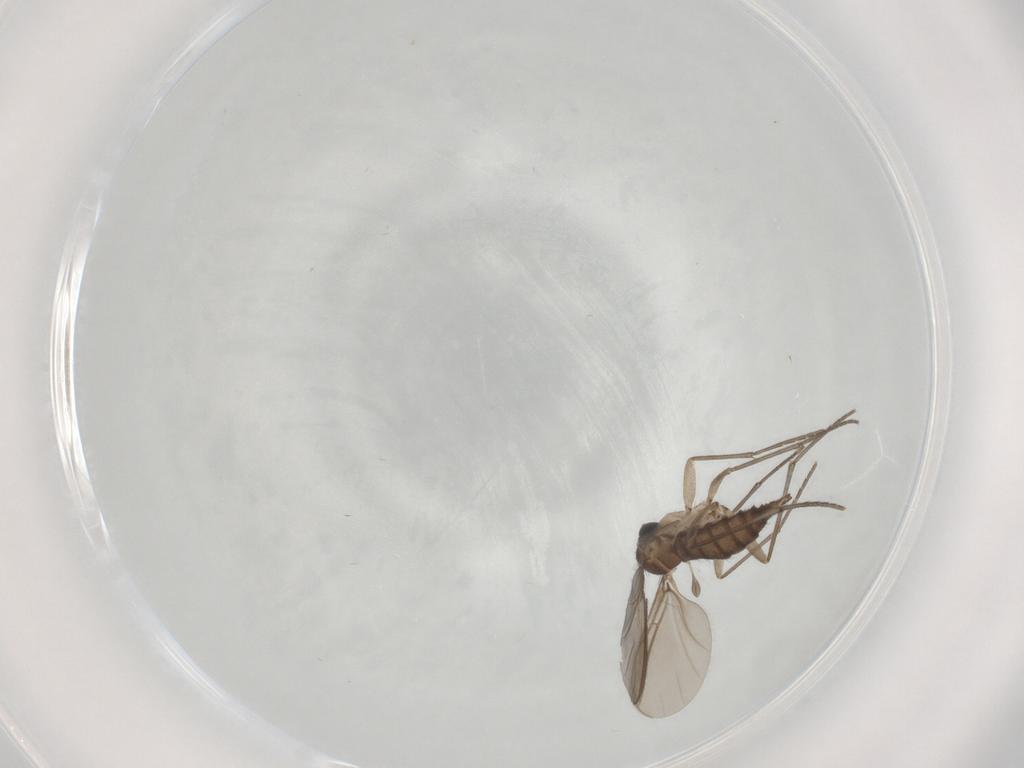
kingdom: Animalia
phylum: Arthropoda
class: Insecta
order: Diptera
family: Sciaridae
